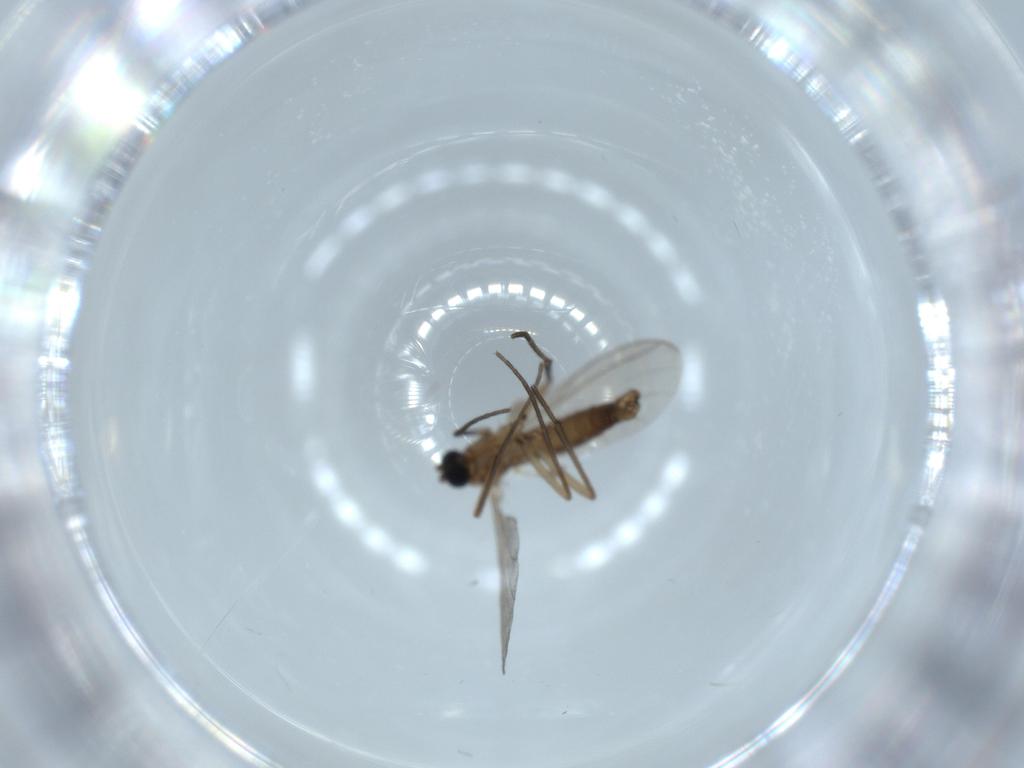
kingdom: Animalia
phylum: Arthropoda
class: Insecta
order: Diptera
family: Sciaridae
